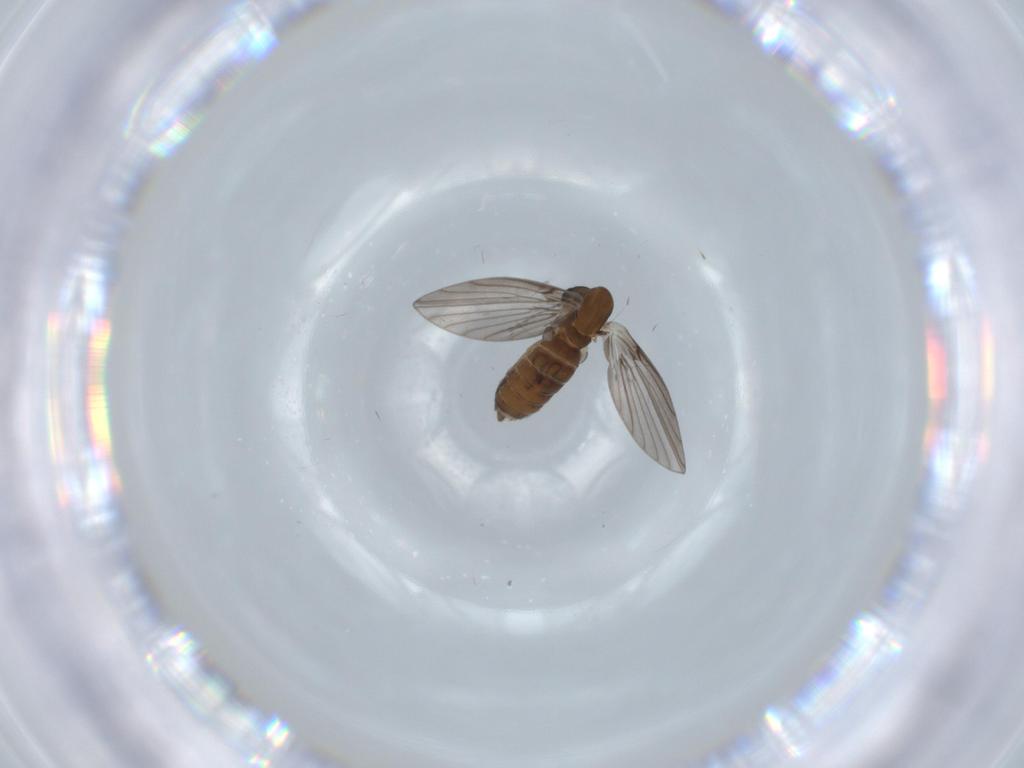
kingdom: Animalia
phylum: Arthropoda
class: Insecta
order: Diptera
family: Psychodidae
